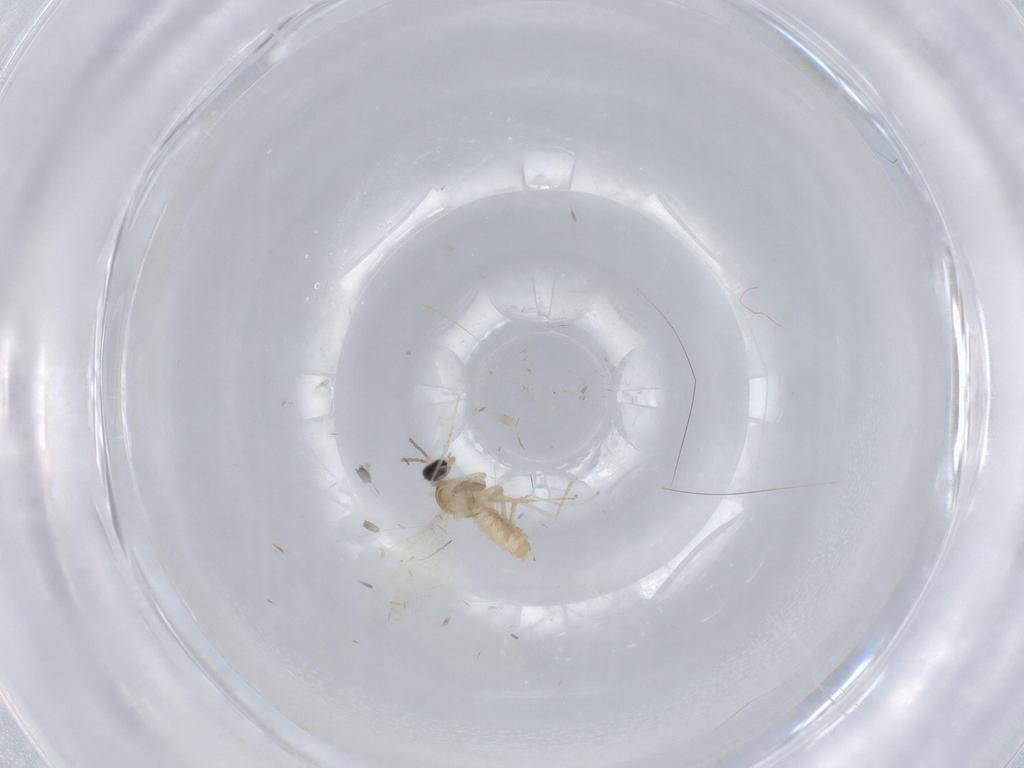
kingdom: Animalia
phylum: Arthropoda
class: Insecta
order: Diptera
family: Cecidomyiidae
